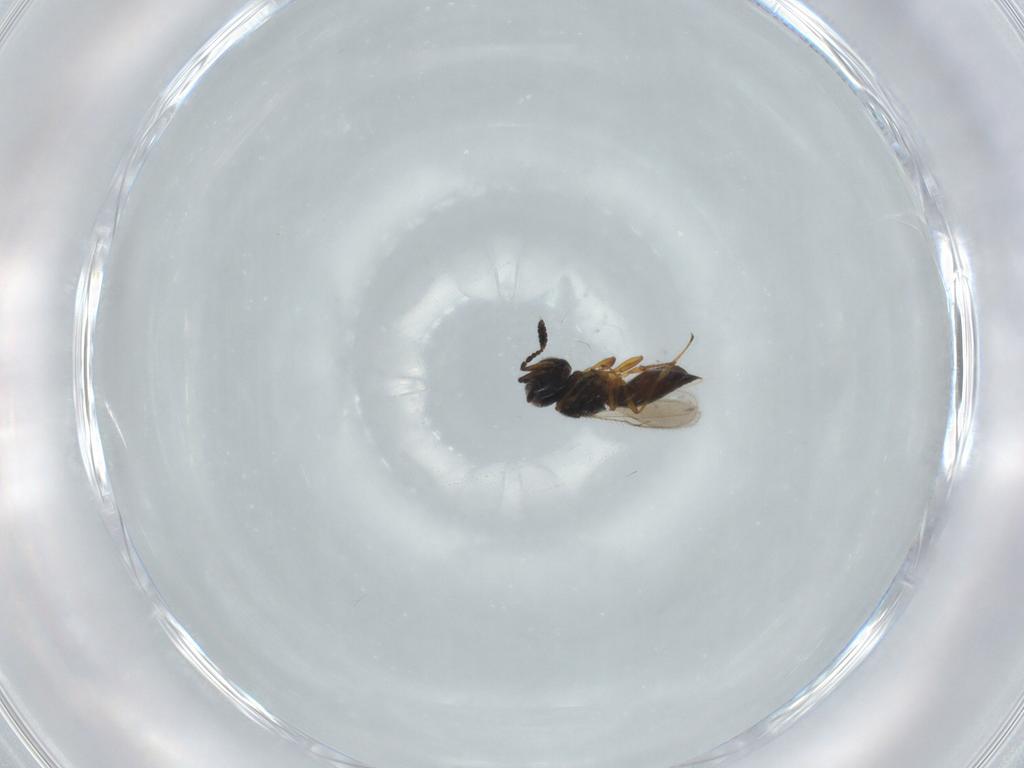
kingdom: Animalia
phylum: Arthropoda
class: Insecta
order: Hymenoptera
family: Scelionidae
